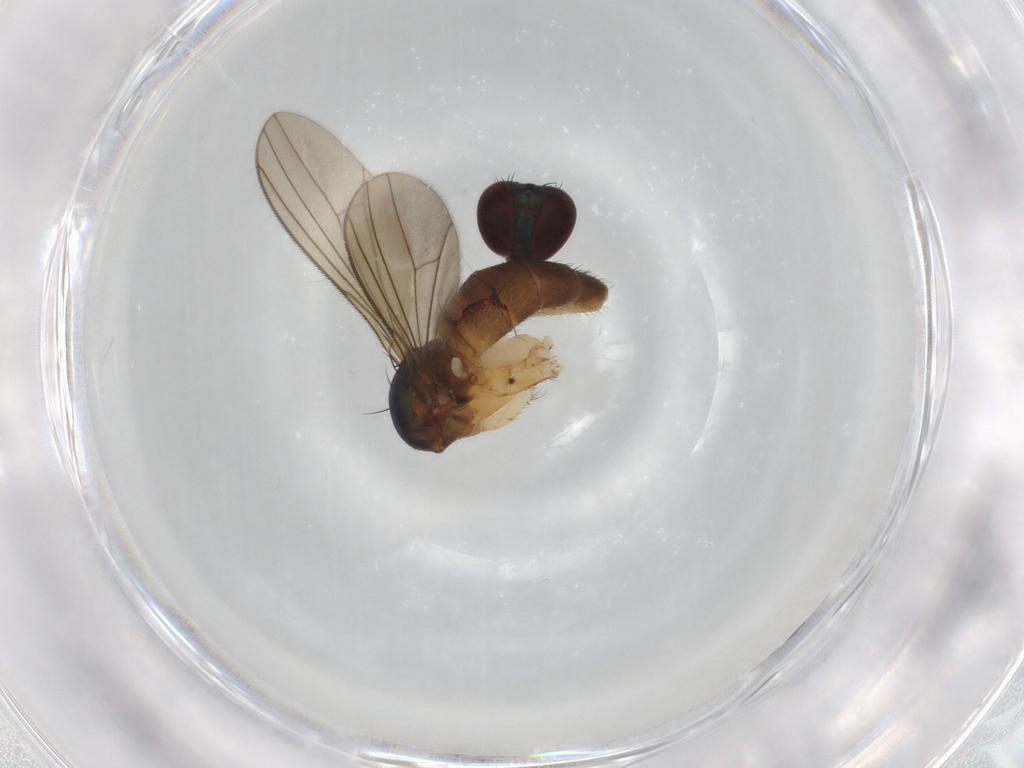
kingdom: Animalia
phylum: Arthropoda
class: Insecta
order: Diptera
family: Dolichopodidae
